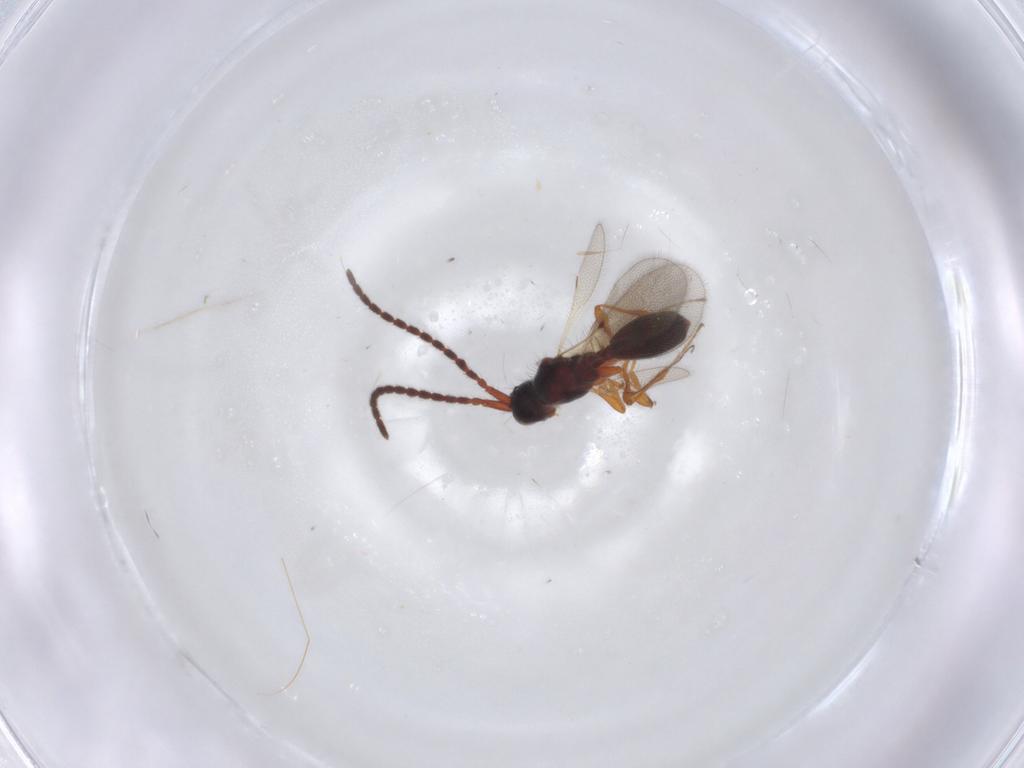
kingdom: Animalia
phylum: Arthropoda
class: Insecta
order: Hymenoptera
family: Diapriidae
